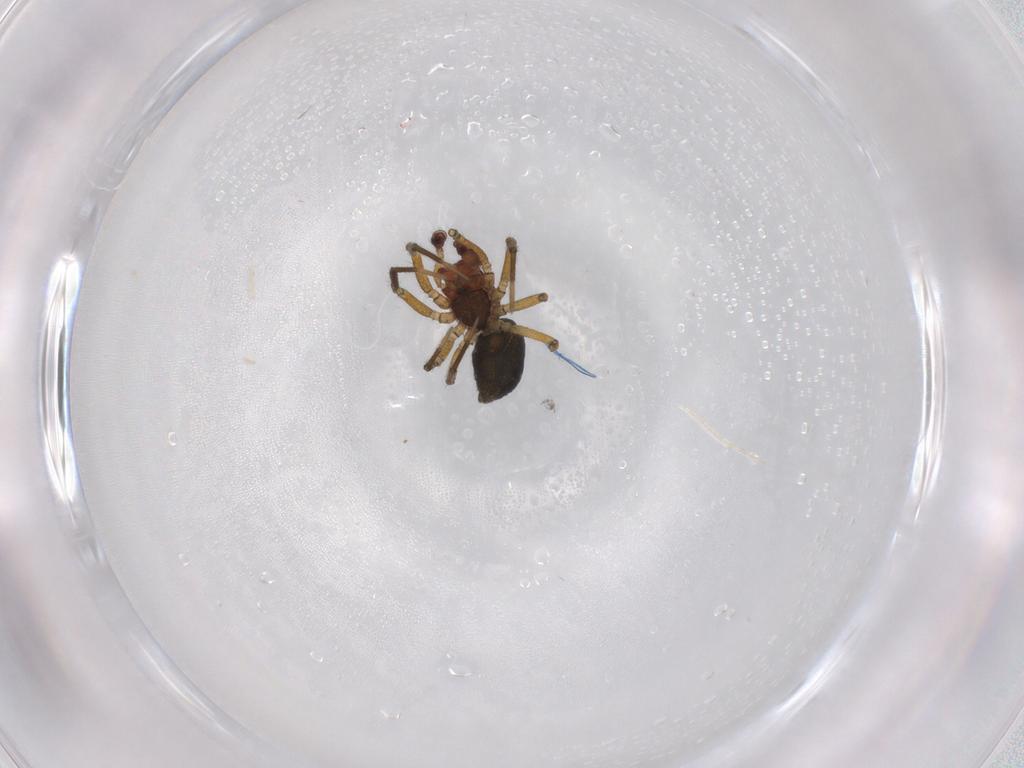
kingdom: Animalia
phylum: Arthropoda
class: Arachnida
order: Araneae
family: Linyphiidae
